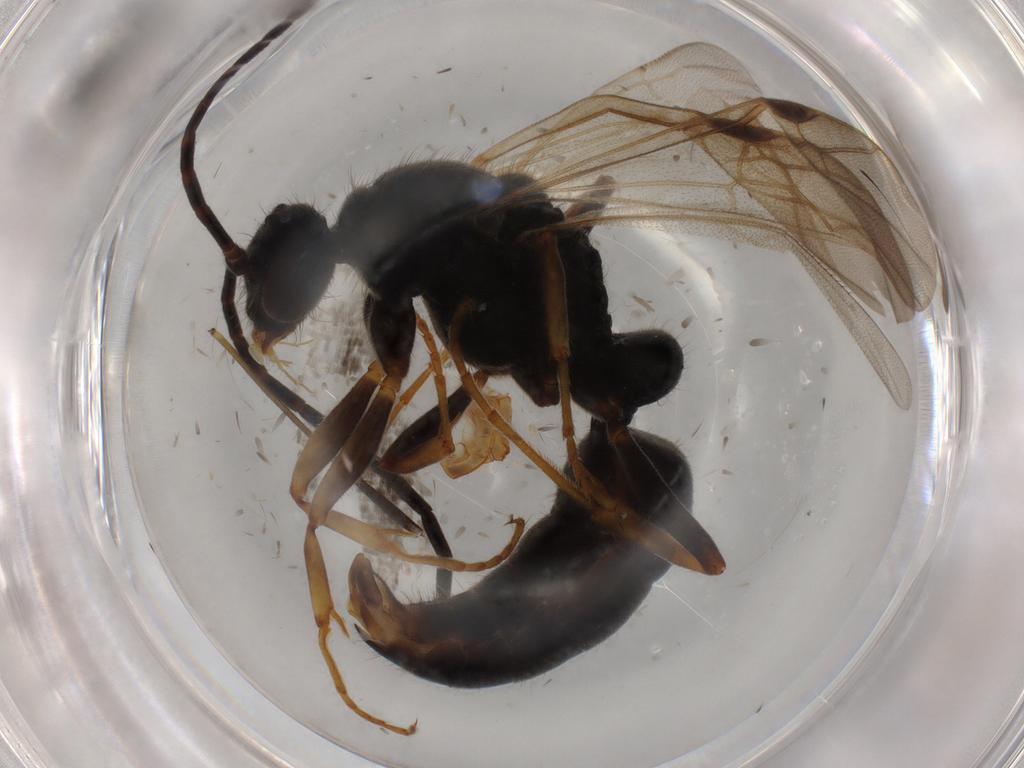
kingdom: Animalia
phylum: Arthropoda
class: Insecta
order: Hymenoptera
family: Formicidae
